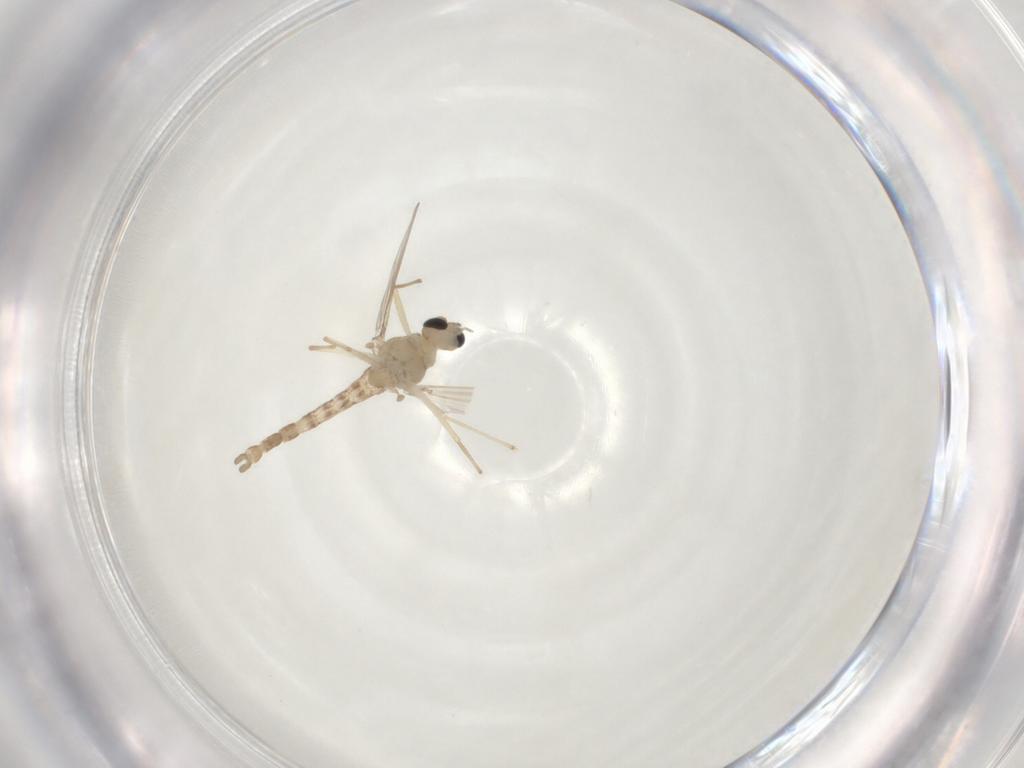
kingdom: Animalia
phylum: Arthropoda
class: Insecta
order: Diptera
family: Chironomidae
